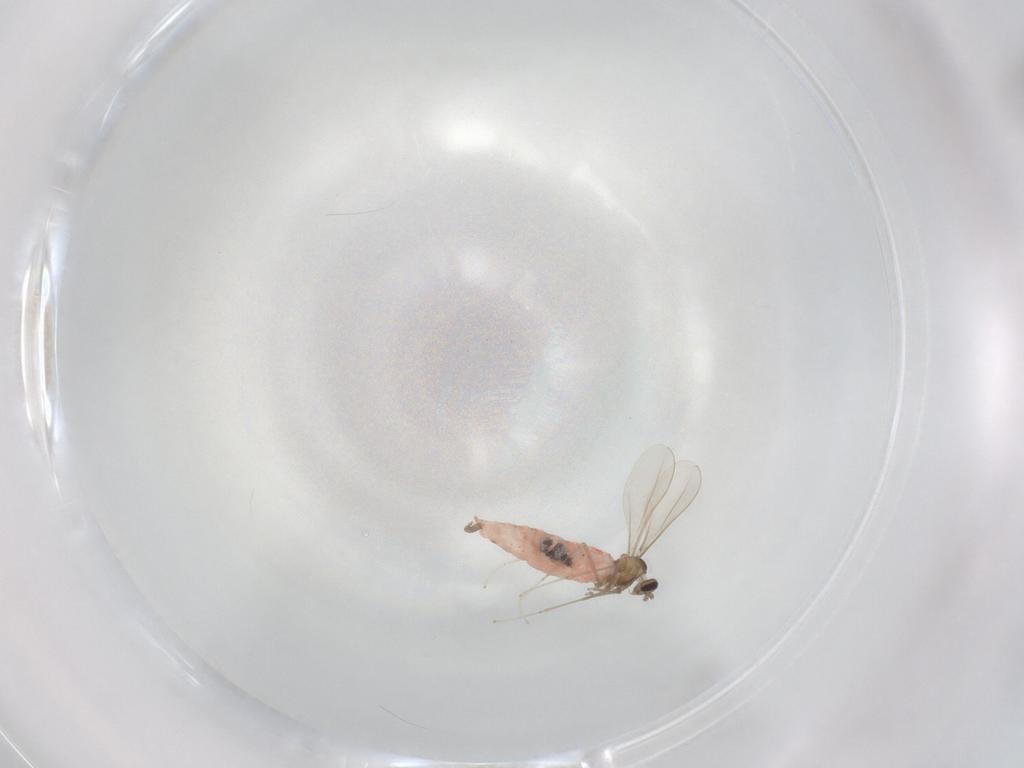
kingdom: Animalia
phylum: Arthropoda
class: Insecta
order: Diptera
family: Cecidomyiidae
